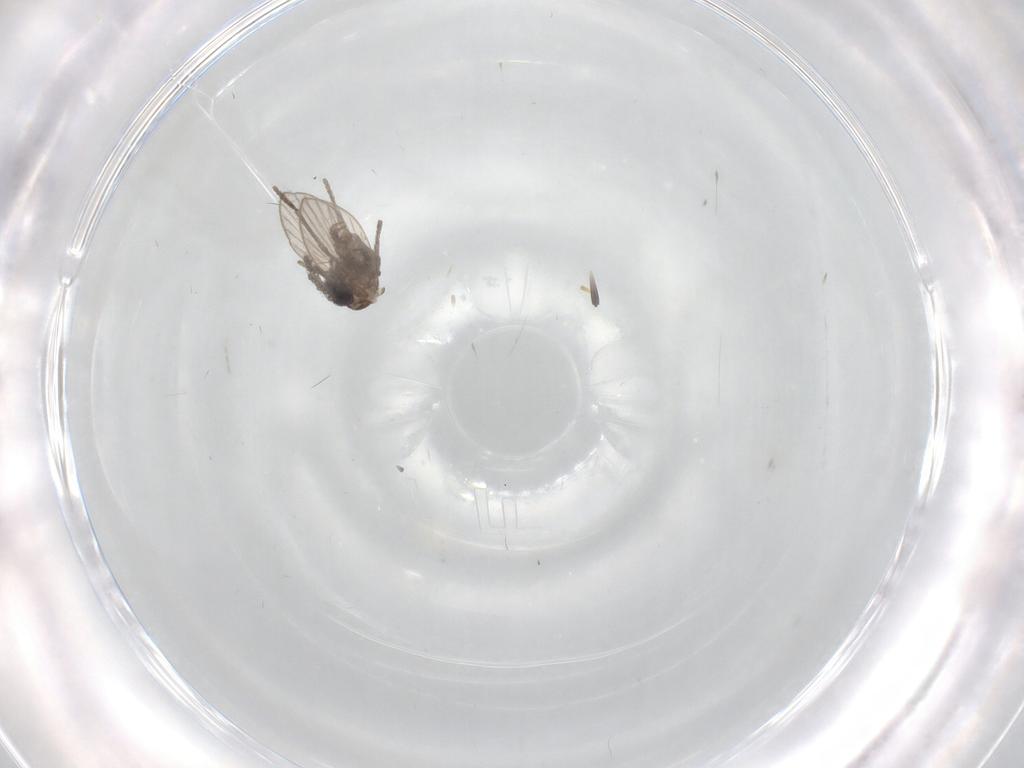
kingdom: Animalia
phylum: Arthropoda
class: Insecta
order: Diptera
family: Psychodidae
